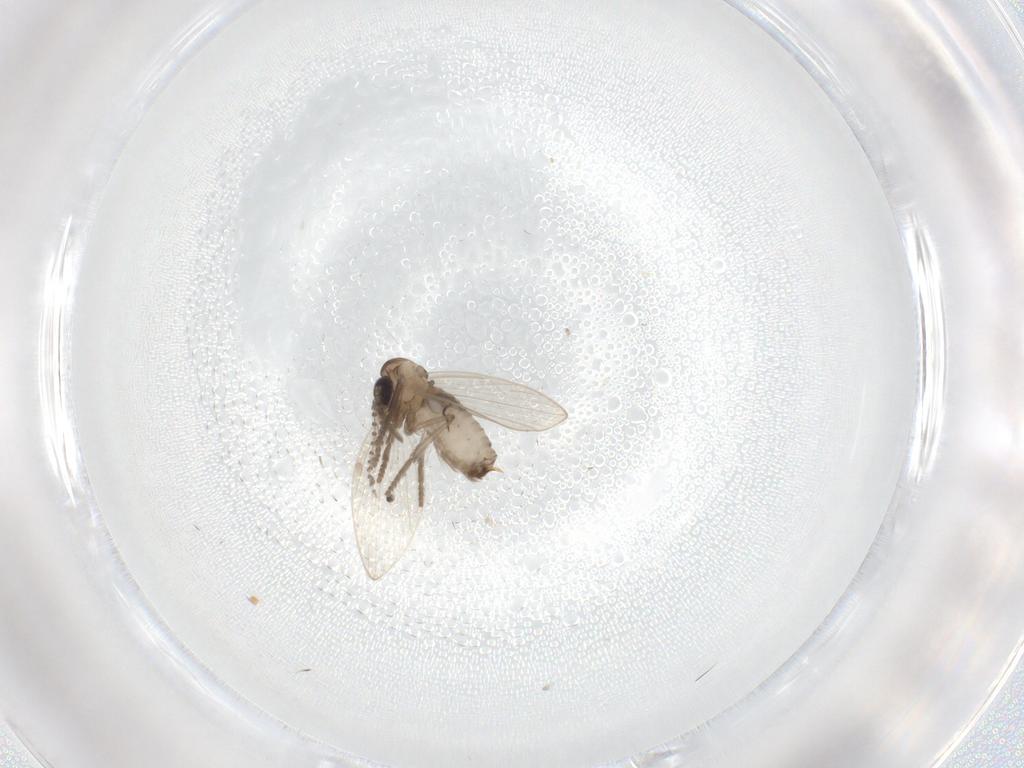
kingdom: Animalia
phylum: Arthropoda
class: Insecta
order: Diptera
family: Psychodidae
